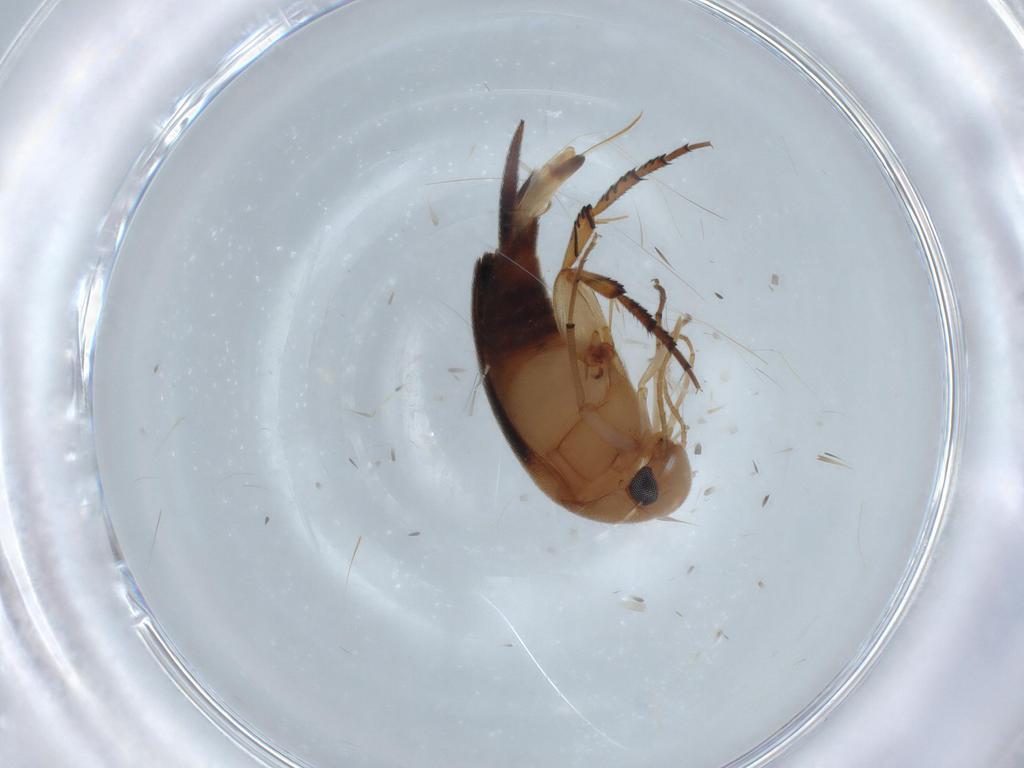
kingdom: Animalia
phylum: Arthropoda
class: Insecta
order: Coleoptera
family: Mordellidae
